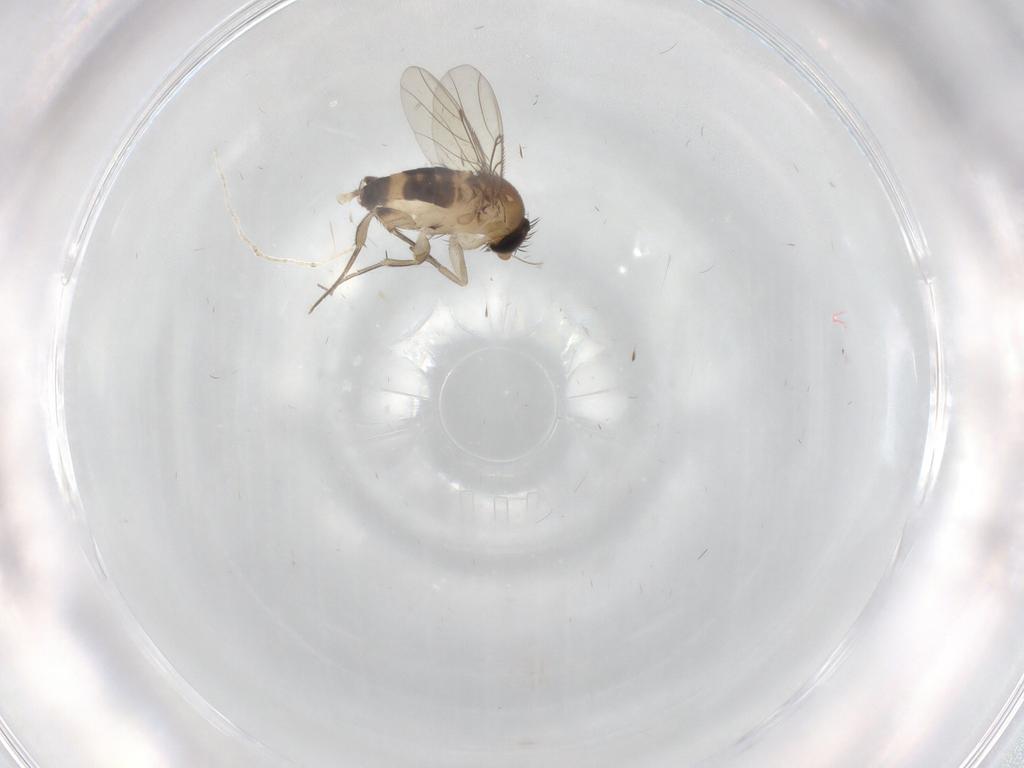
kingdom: Animalia
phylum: Arthropoda
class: Insecta
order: Diptera
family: Phoridae
